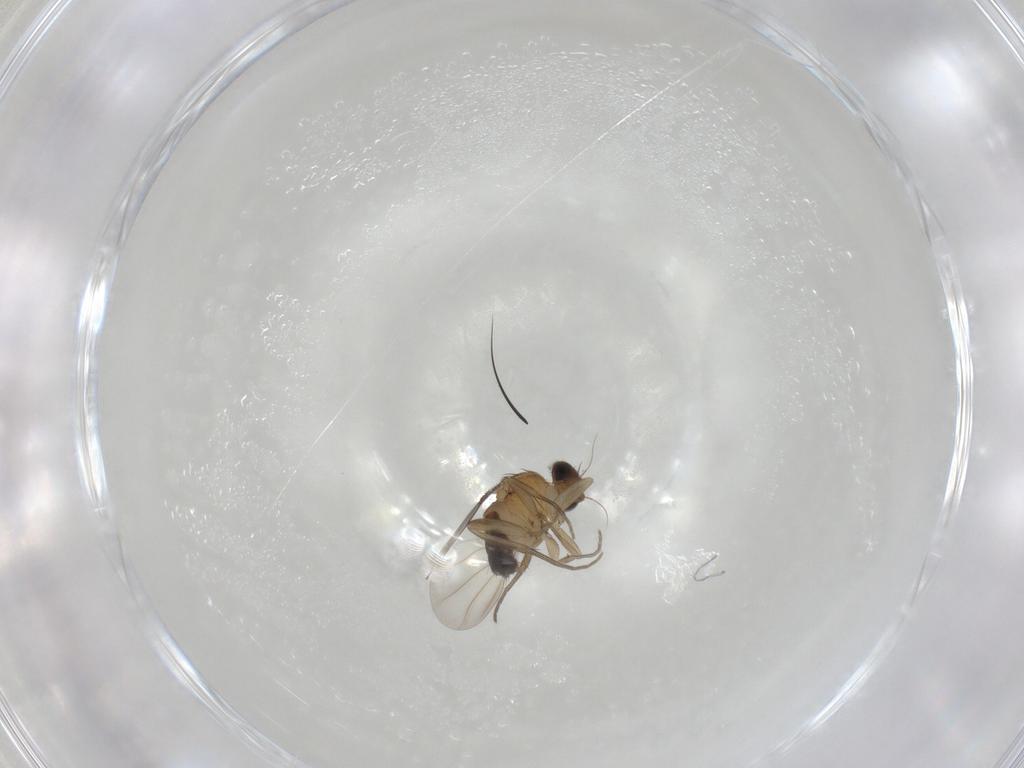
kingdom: Animalia
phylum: Arthropoda
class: Insecta
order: Diptera
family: Phoridae
